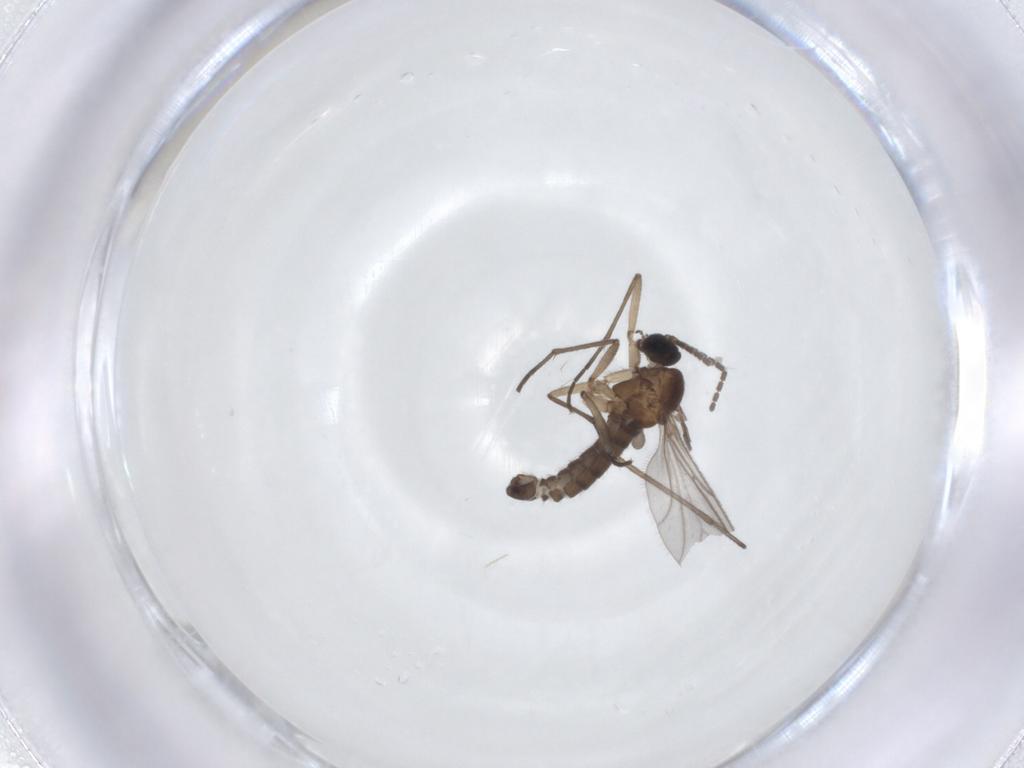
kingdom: Animalia
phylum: Arthropoda
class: Insecta
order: Diptera
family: Sciaridae
